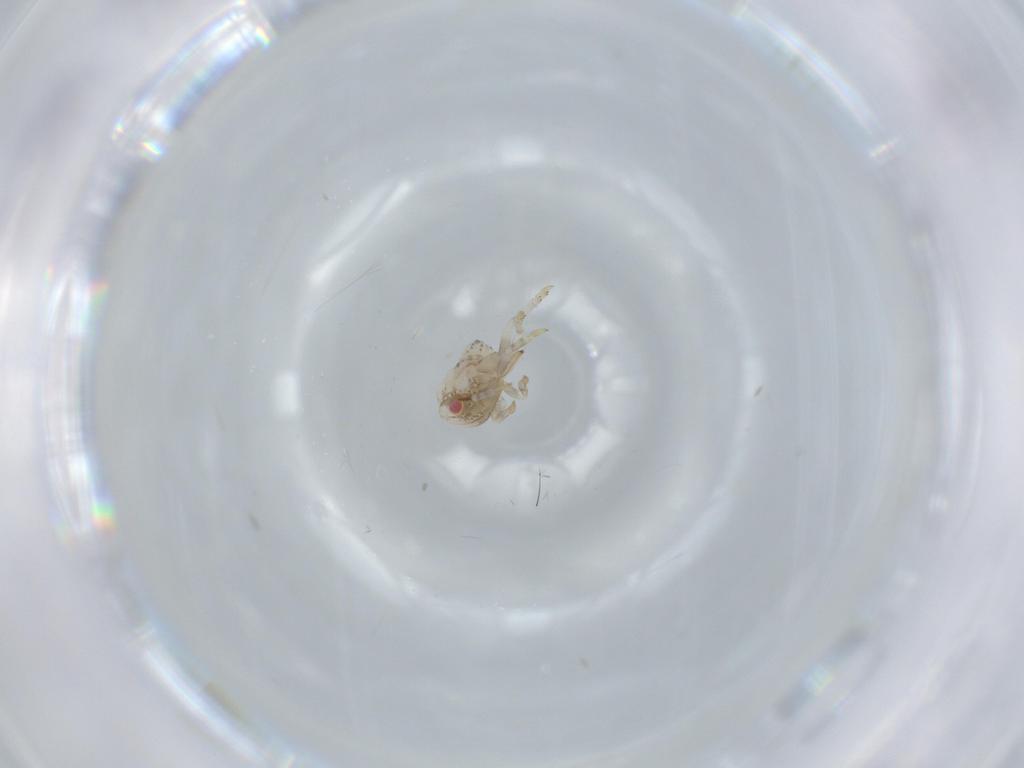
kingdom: Animalia
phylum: Arthropoda
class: Insecta
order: Hemiptera
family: Acanaloniidae
